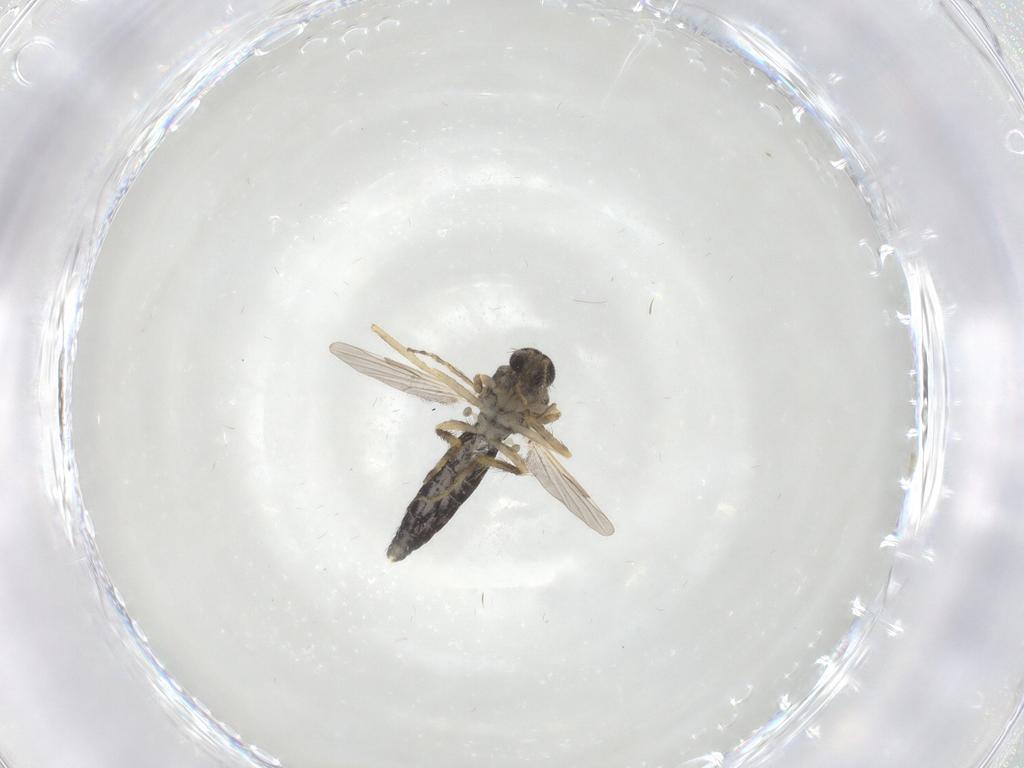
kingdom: Animalia
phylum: Arthropoda
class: Insecta
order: Diptera
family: Ceratopogonidae
